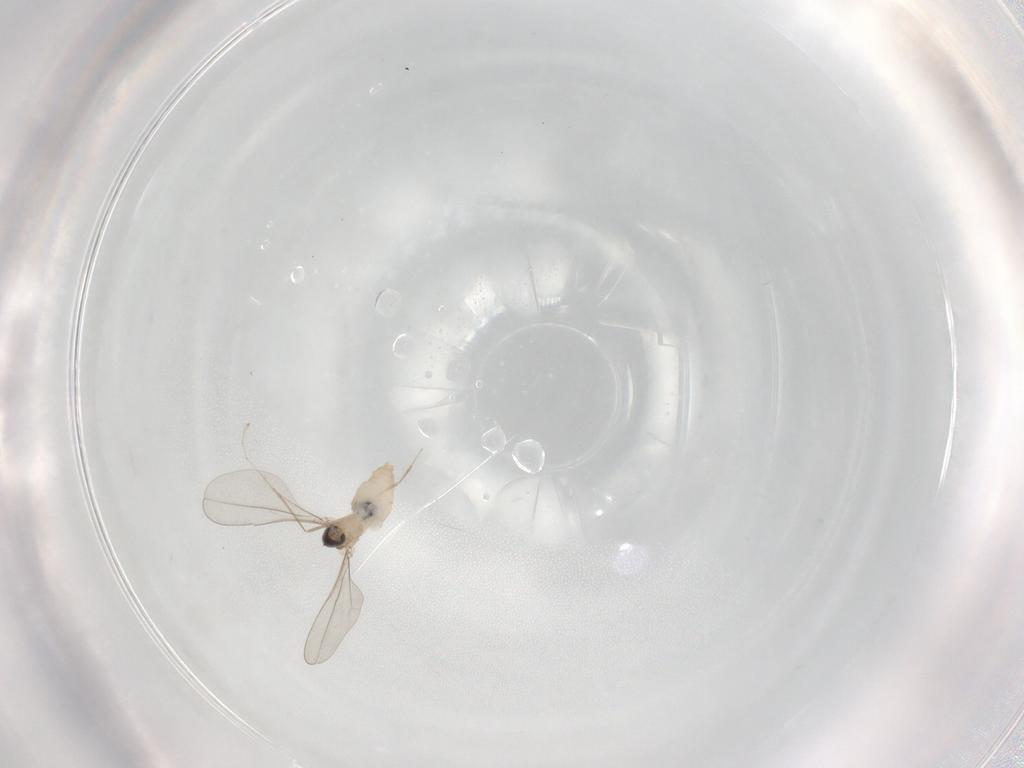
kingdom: Animalia
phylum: Arthropoda
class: Insecta
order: Diptera
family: Cecidomyiidae
